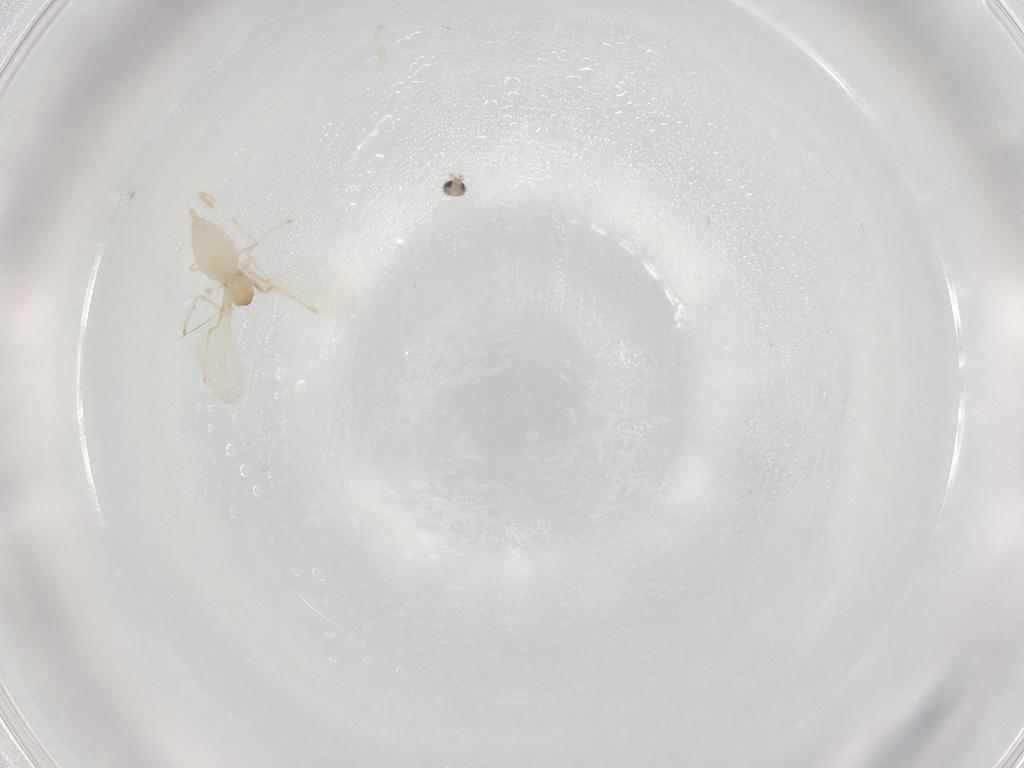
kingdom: Animalia
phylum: Arthropoda
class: Insecta
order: Diptera
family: Cecidomyiidae
